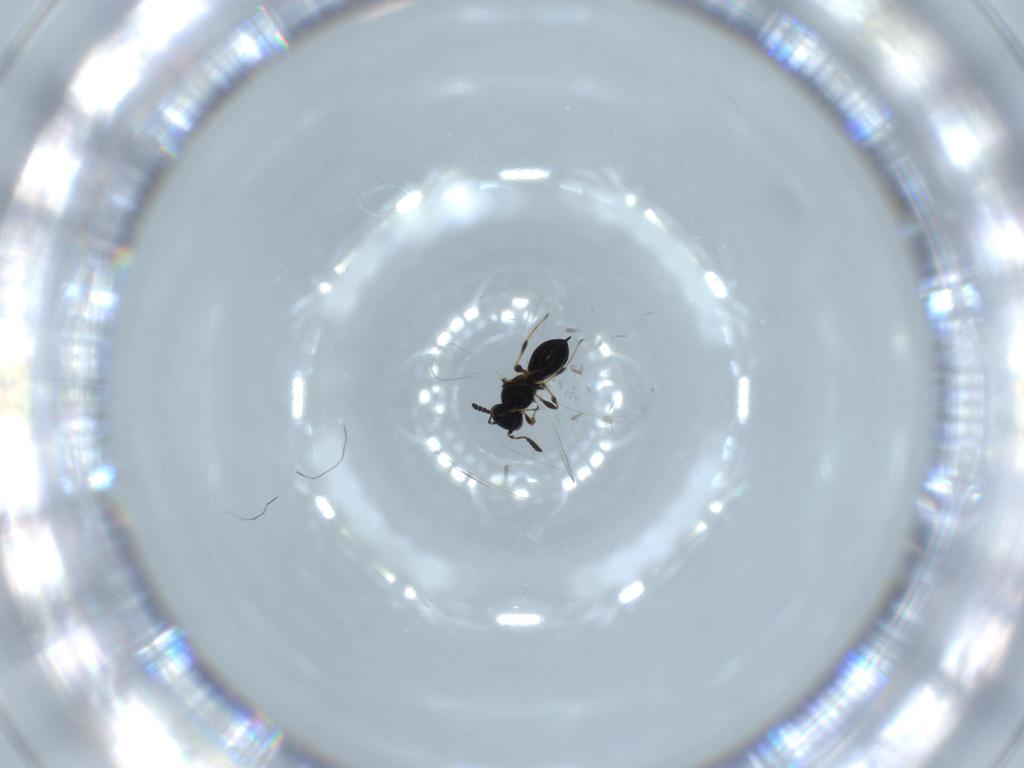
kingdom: Animalia
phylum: Arthropoda
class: Insecta
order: Hymenoptera
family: Platygastridae
